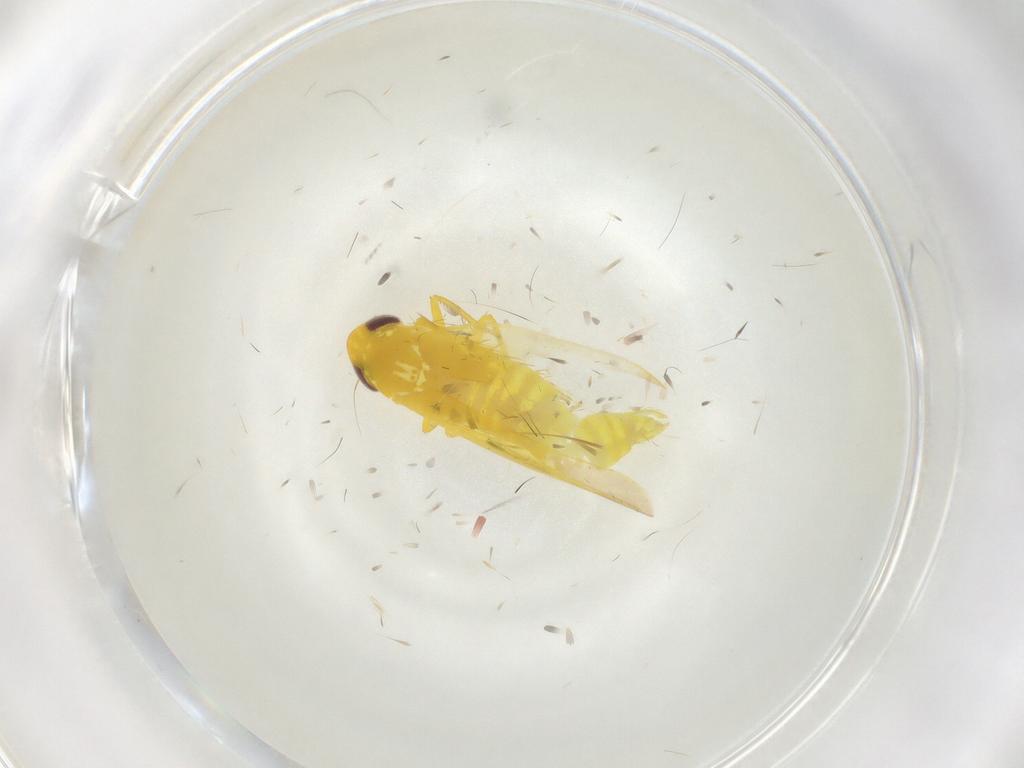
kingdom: Animalia
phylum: Arthropoda
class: Insecta
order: Hemiptera
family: Cicadellidae
